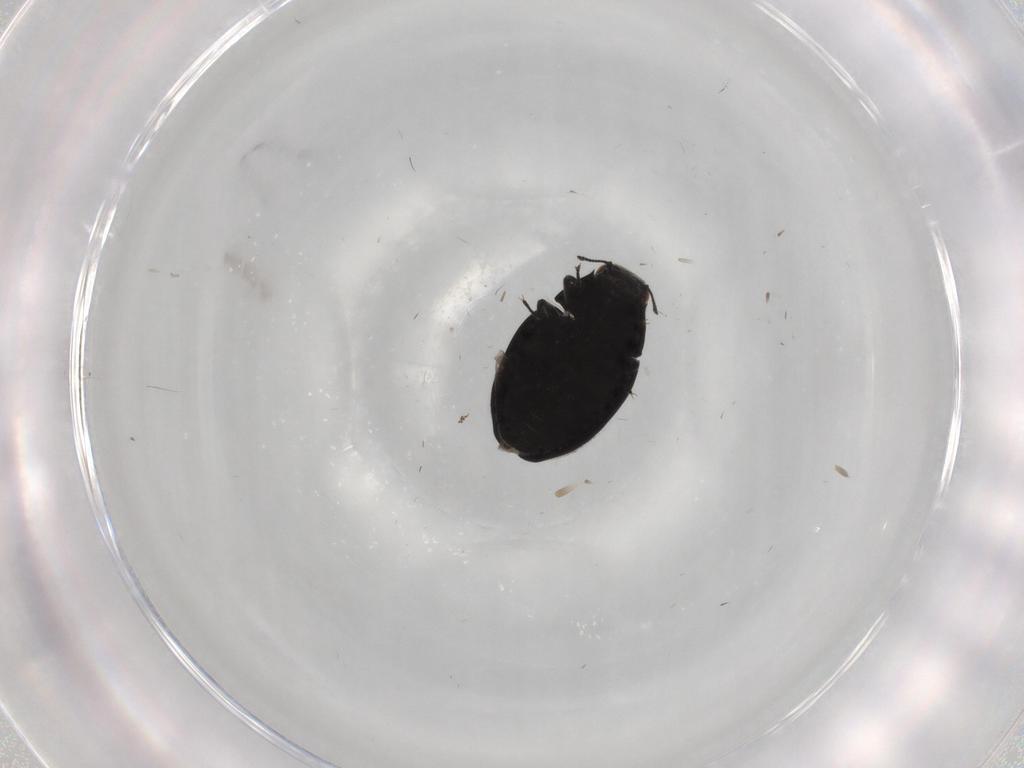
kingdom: Animalia
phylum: Arthropoda
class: Insecta
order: Coleoptera
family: Limnichidae
